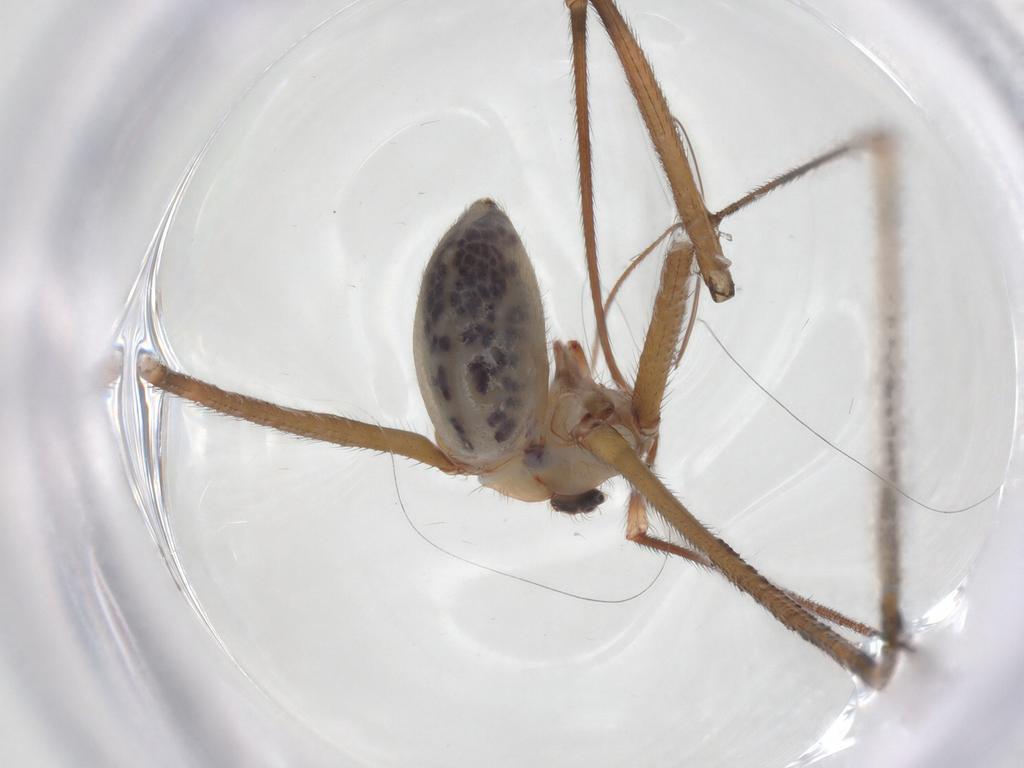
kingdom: Animalia
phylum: Arthropoda
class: Arachnida
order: Araneae
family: Pholcidae
